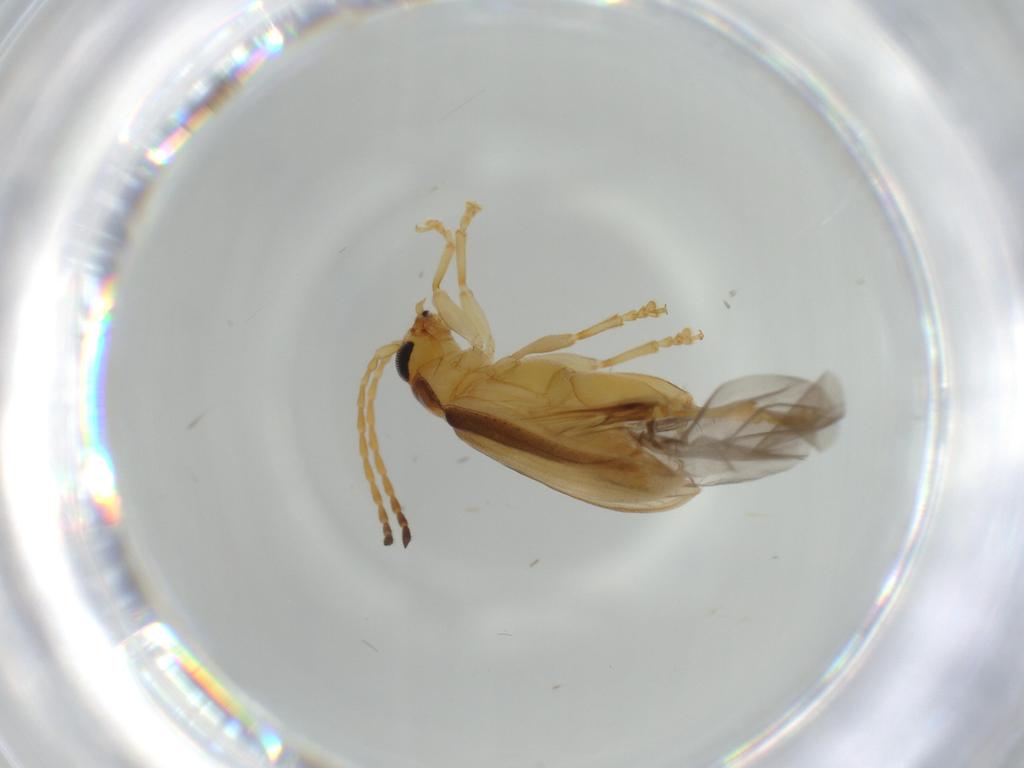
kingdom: Animalia
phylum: Arthropoda
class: Insecta
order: Coleoptera
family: Chrysomelidae
